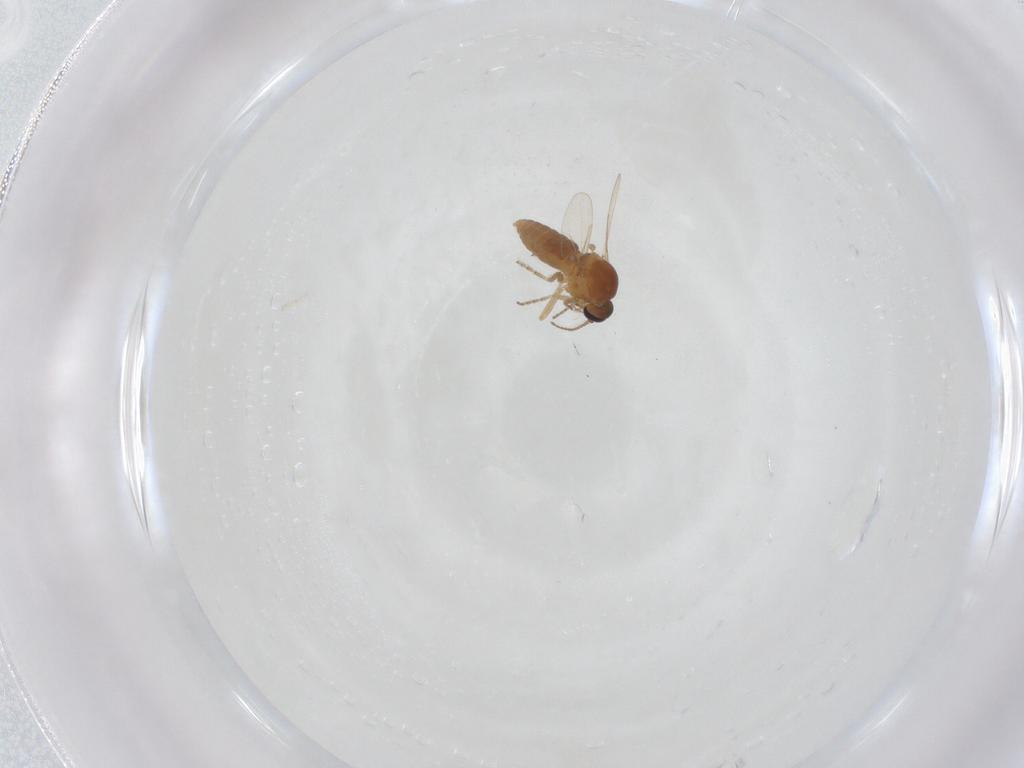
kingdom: Animalia
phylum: Arthropoda
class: Insecta
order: Diptera
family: Ceratopogonidae
